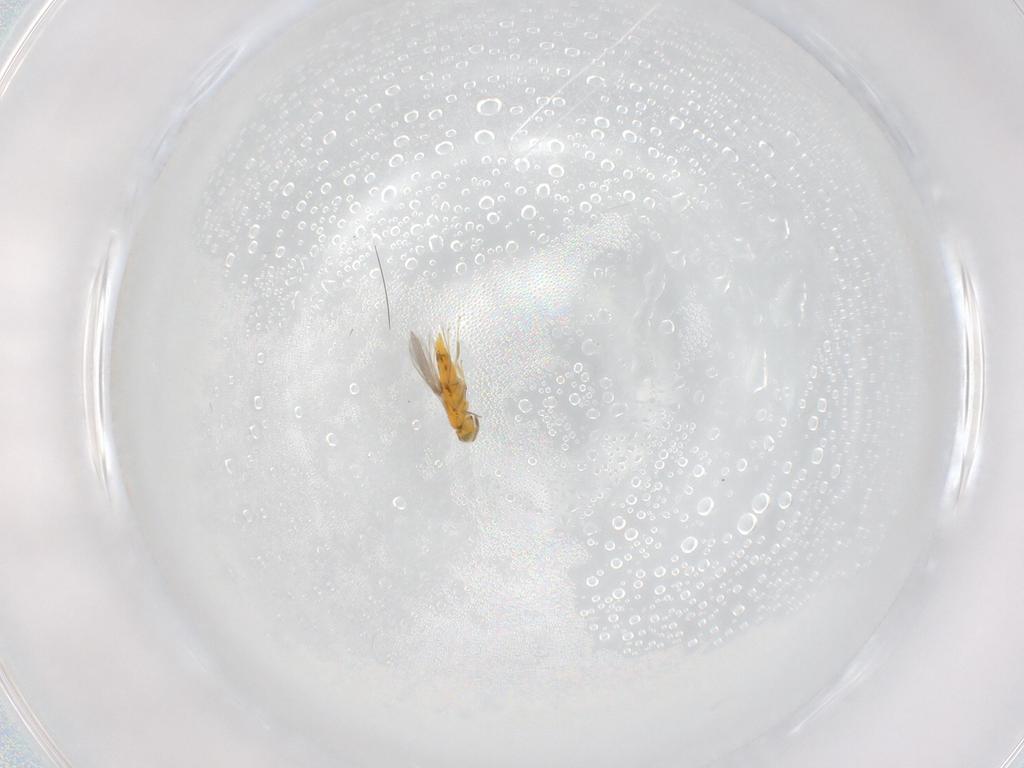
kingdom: Animalia
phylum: Arthropoda
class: Insecta
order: Hymenoptera
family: Aphelinidae
